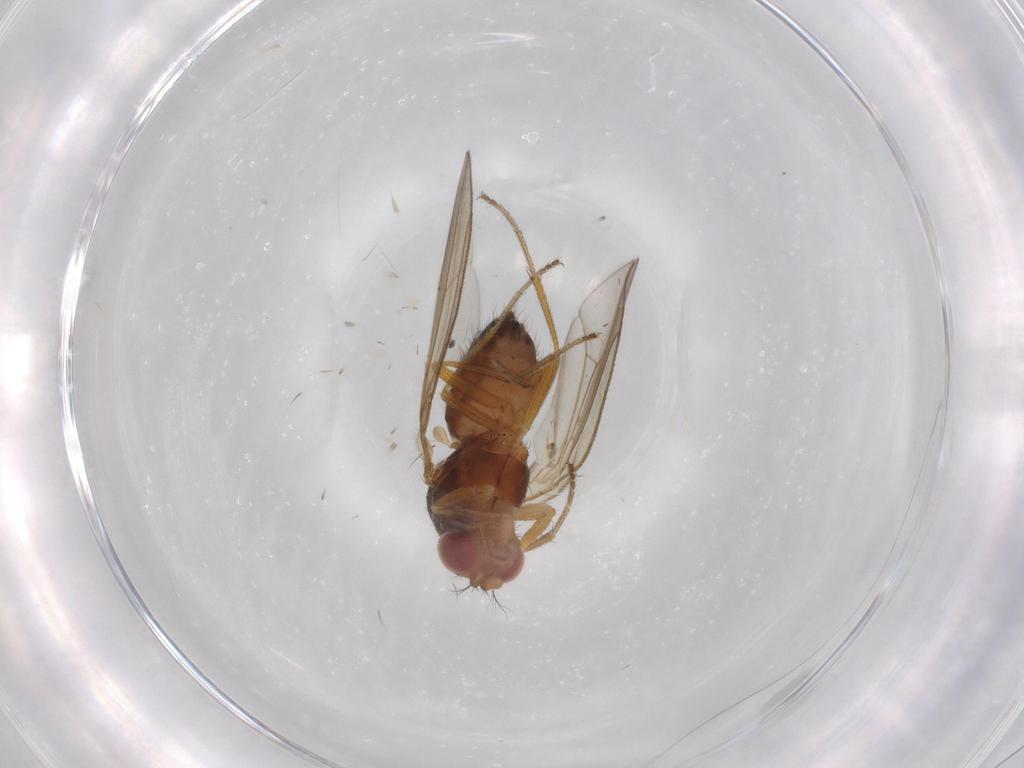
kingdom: Animalia
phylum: Arthropoda
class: Insecta
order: Diptera
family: Drosophilidae
